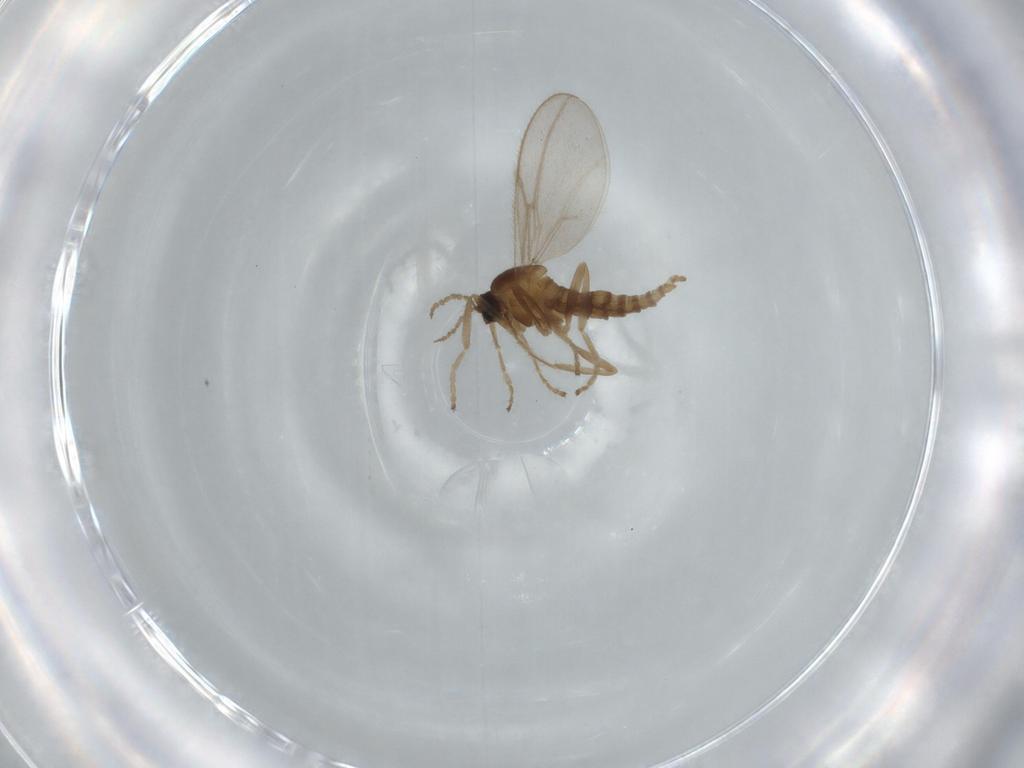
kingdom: Animalia
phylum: Arthropoda
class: Insecta
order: Diptera
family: Cecidomyiidae
